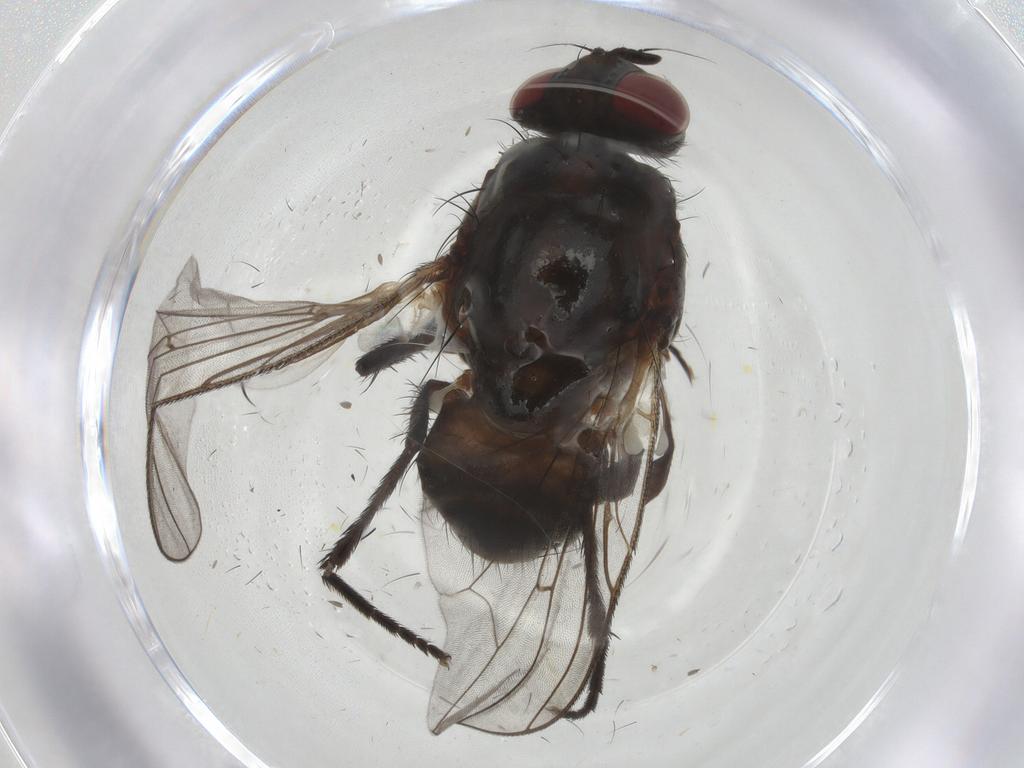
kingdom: Animalia
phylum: Arthropoda
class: Insecta
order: Diptera
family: Anthomyiidae
